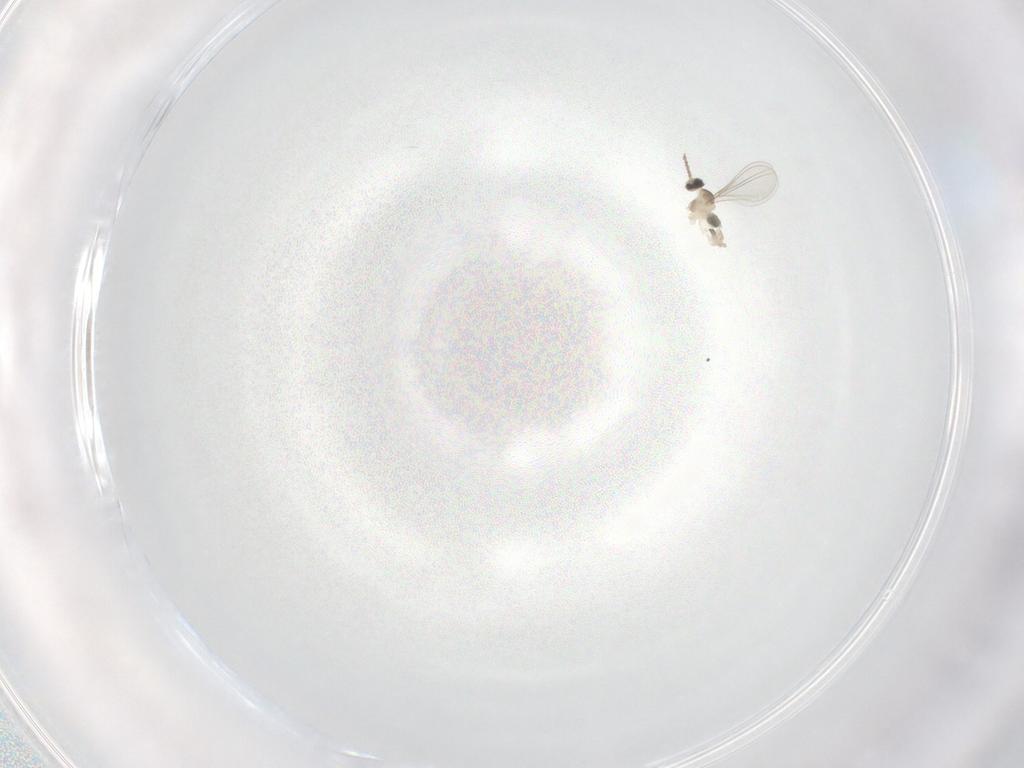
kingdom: Animalia
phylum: Arthropoda
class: Insecta
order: Diptera
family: Cecidomyiidae
